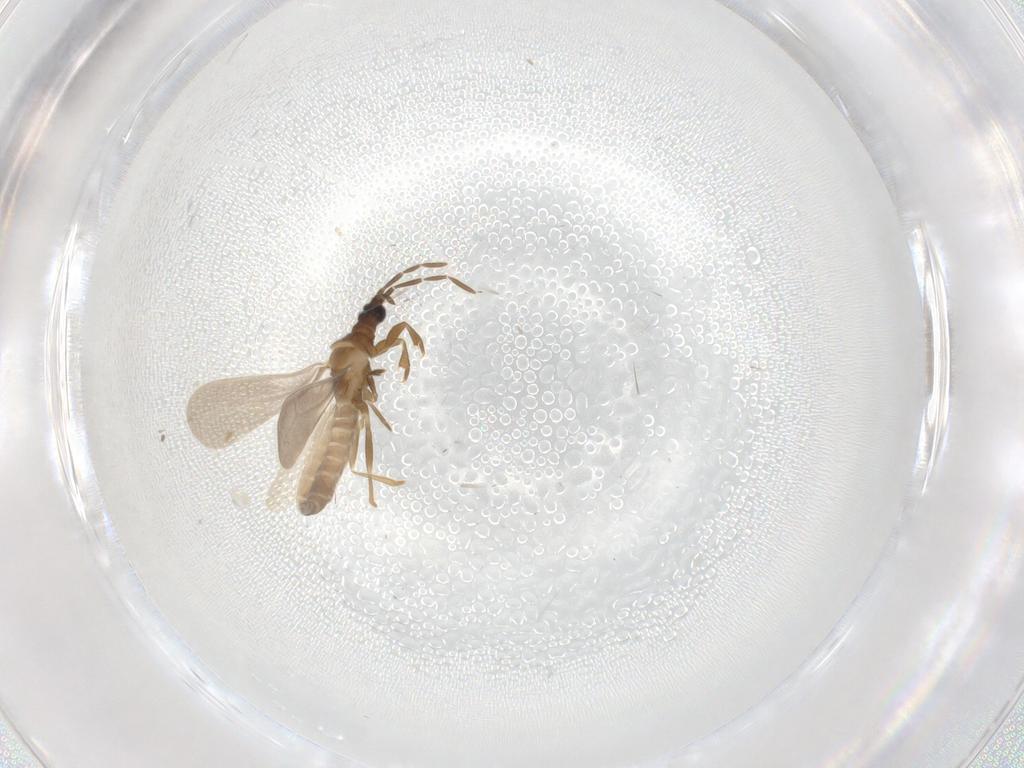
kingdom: Animalia
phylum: Arthropoda
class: Insecta
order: Hemiptera
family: Enicocephalidae
